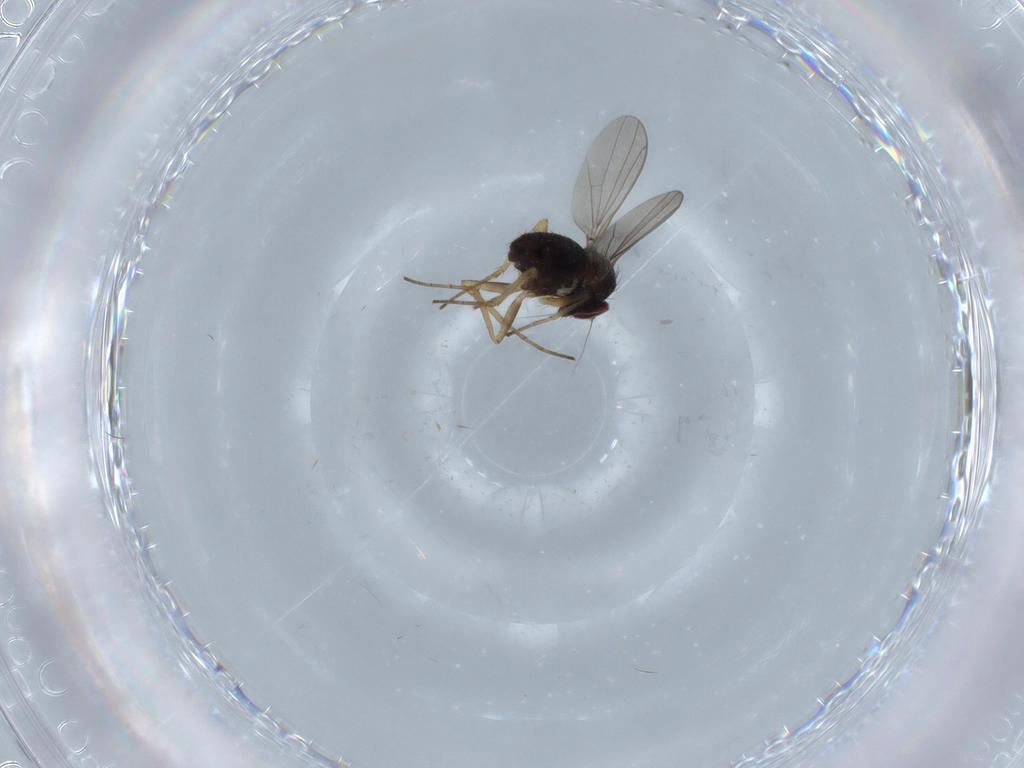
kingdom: Animalia
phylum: Arthropoda
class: Insecta
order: Diptera
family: Cecidomyiidae
